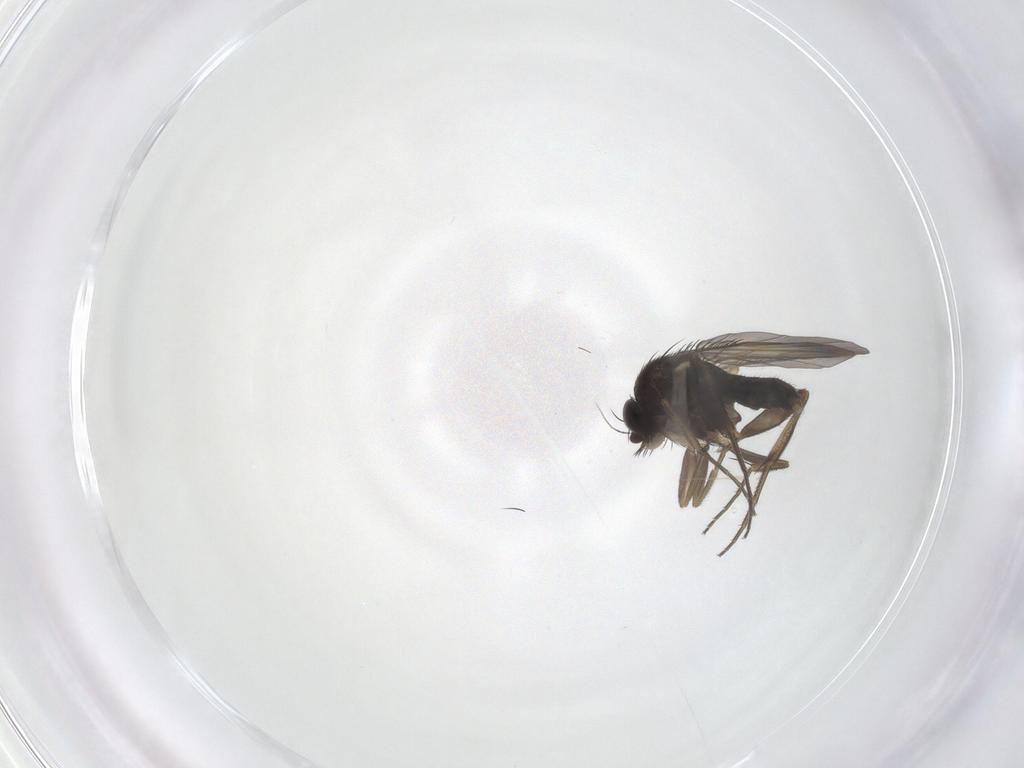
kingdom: Animalia
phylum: Arthropoda
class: Insecta
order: Diptera
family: Phoridae
